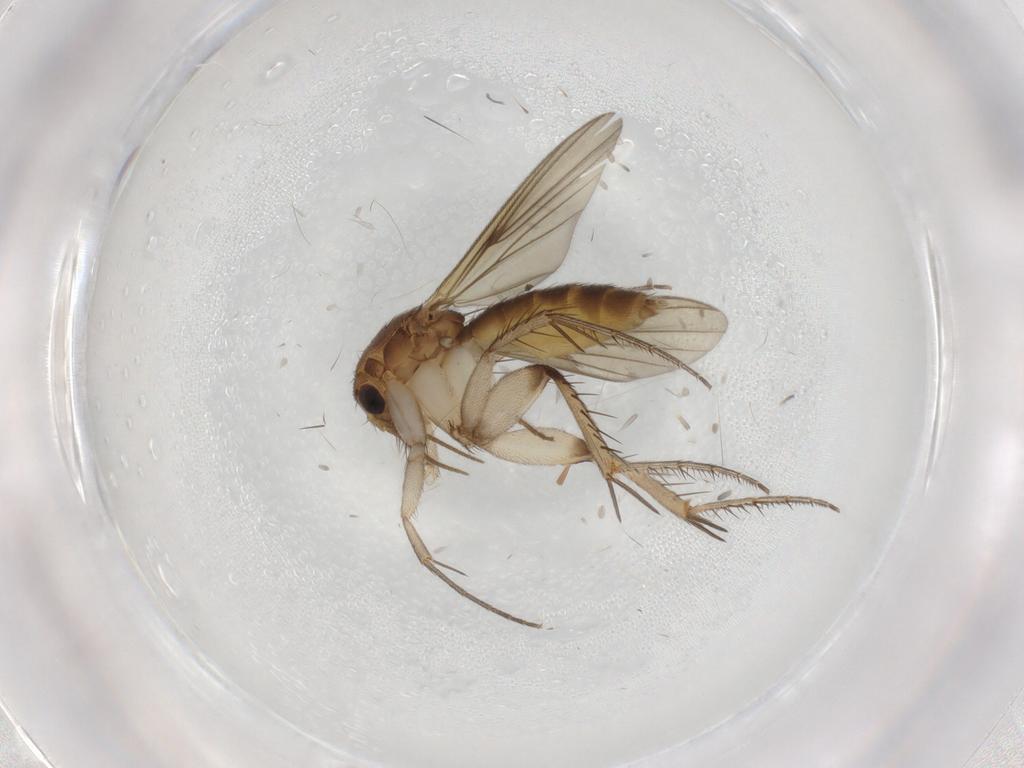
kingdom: Animalia
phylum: Arthropoda
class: Insecta
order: Diptera
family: Mycetophilidae
